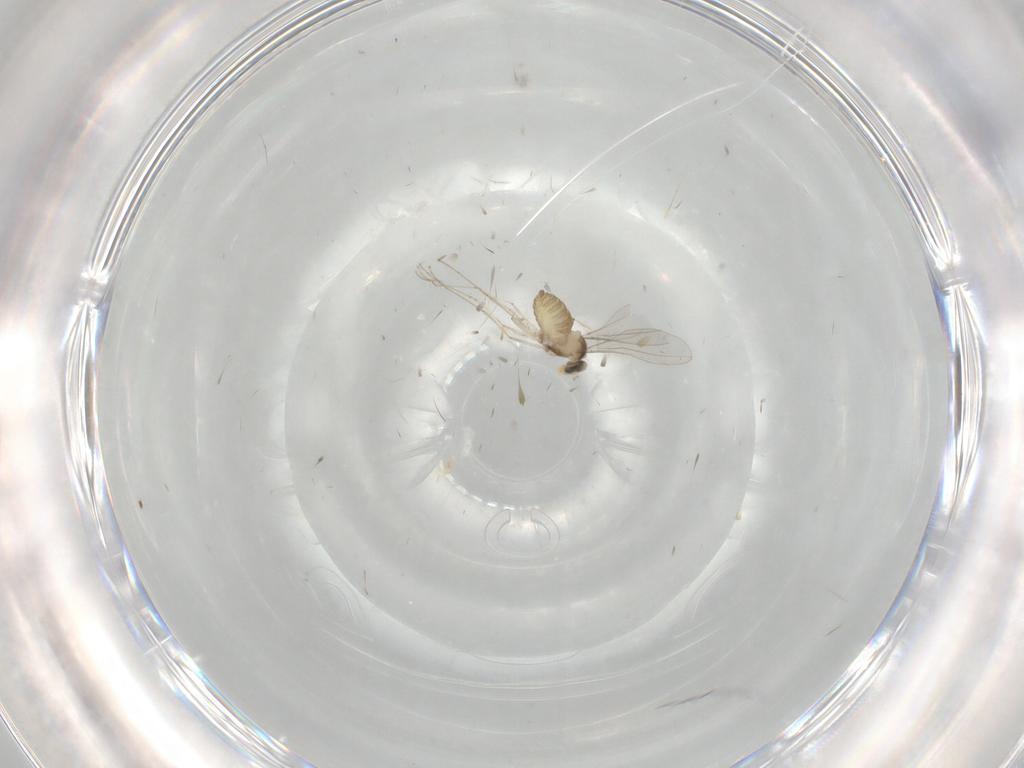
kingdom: Animalia
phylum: Arthropoda
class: Insecta
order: Diptera
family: Cecidomyiidae
